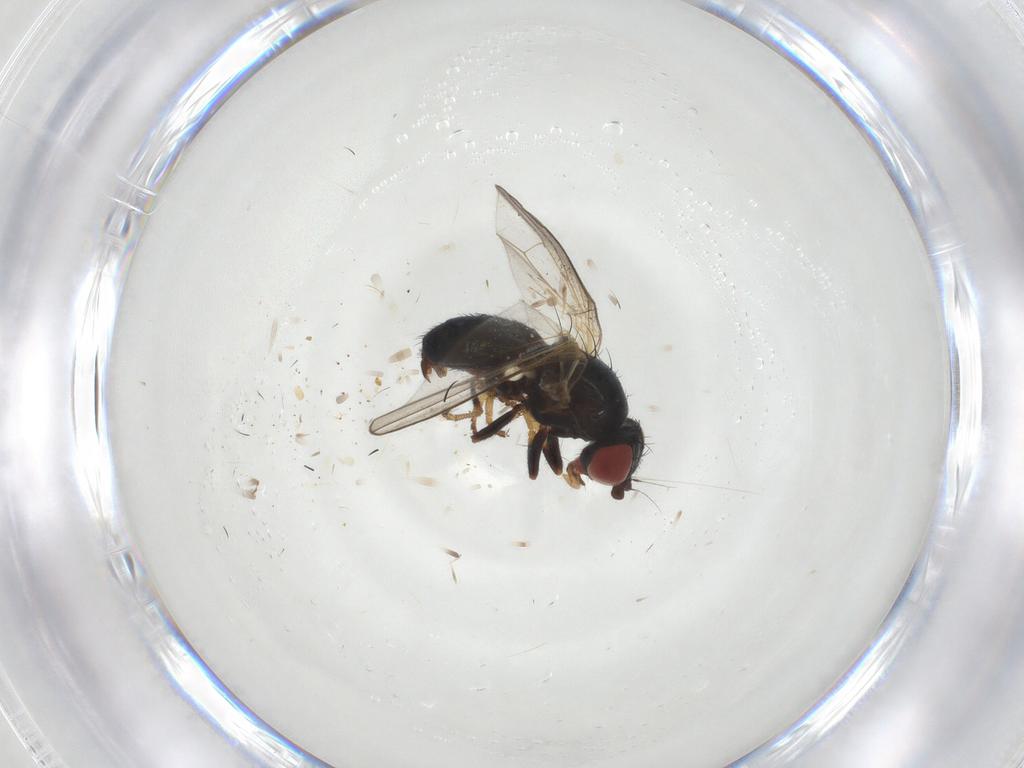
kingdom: Animalia
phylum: Arthropoda
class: Insecta
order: Diptera
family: Chamaemyiidae
